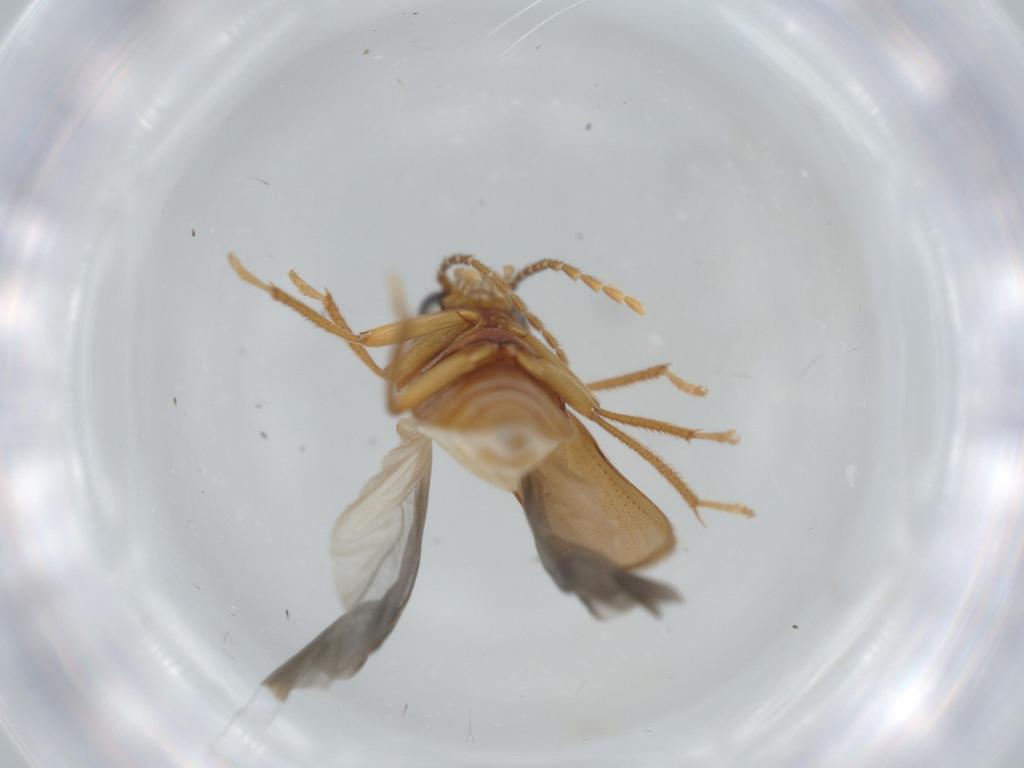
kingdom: Animalia
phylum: Arthropoda
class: Insecta
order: Coleoptera
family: Ptilodactylidae
